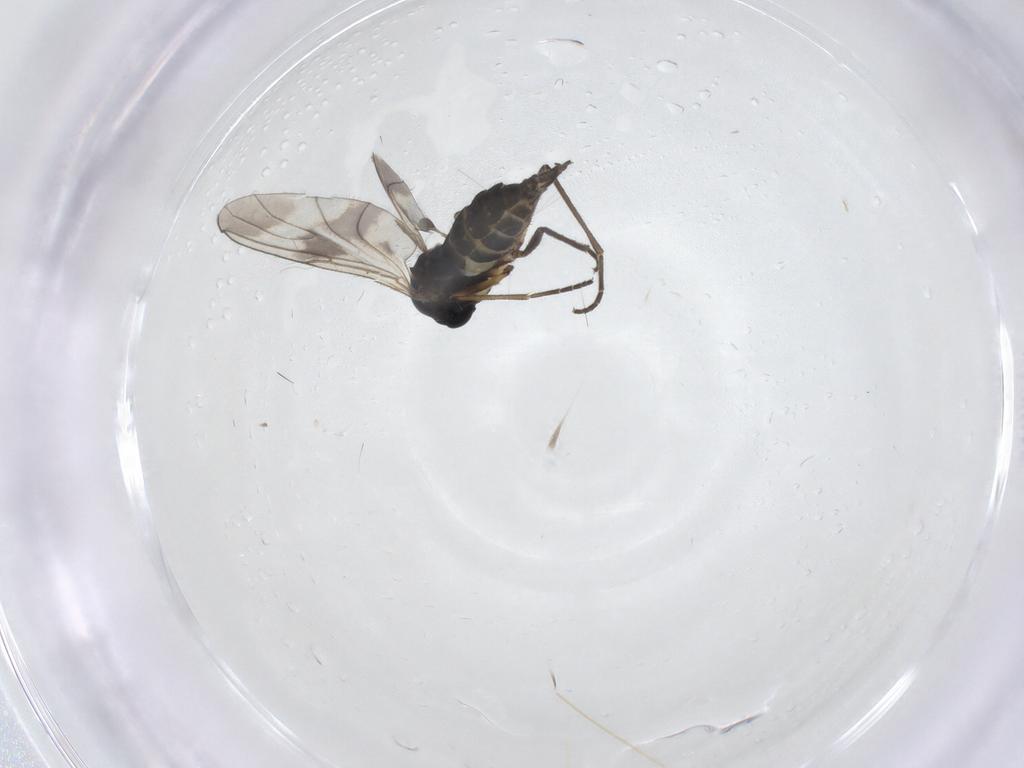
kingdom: Animalia
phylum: Arthropoda
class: Insecta
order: Diptera
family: Sciaridae
